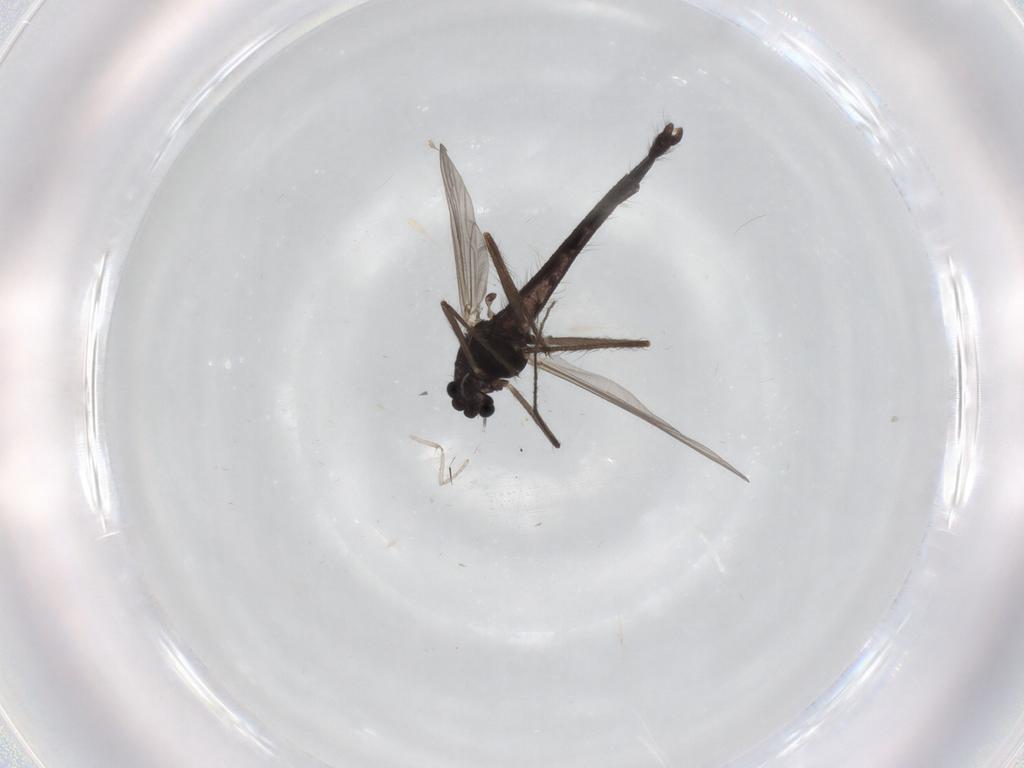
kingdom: Animalia
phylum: Arthropoda
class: Insecta
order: Diptera
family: Chironomidae
